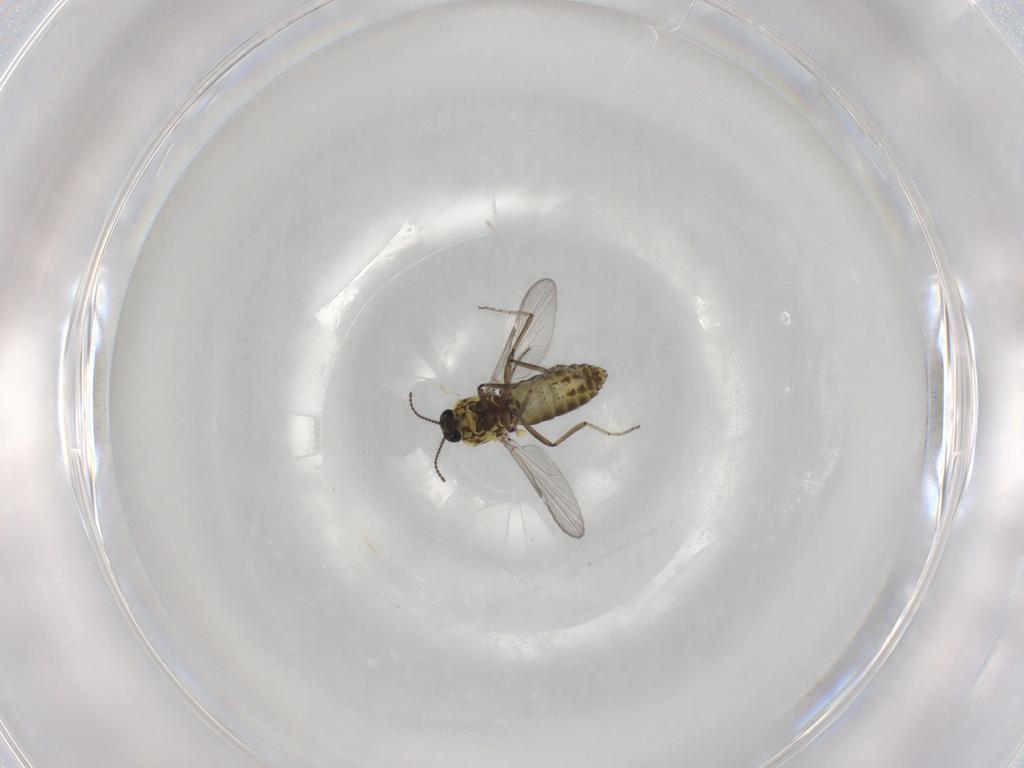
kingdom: Animalia
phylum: Arthropoda
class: Insecta
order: Diptera
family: Ceratopogonidae
